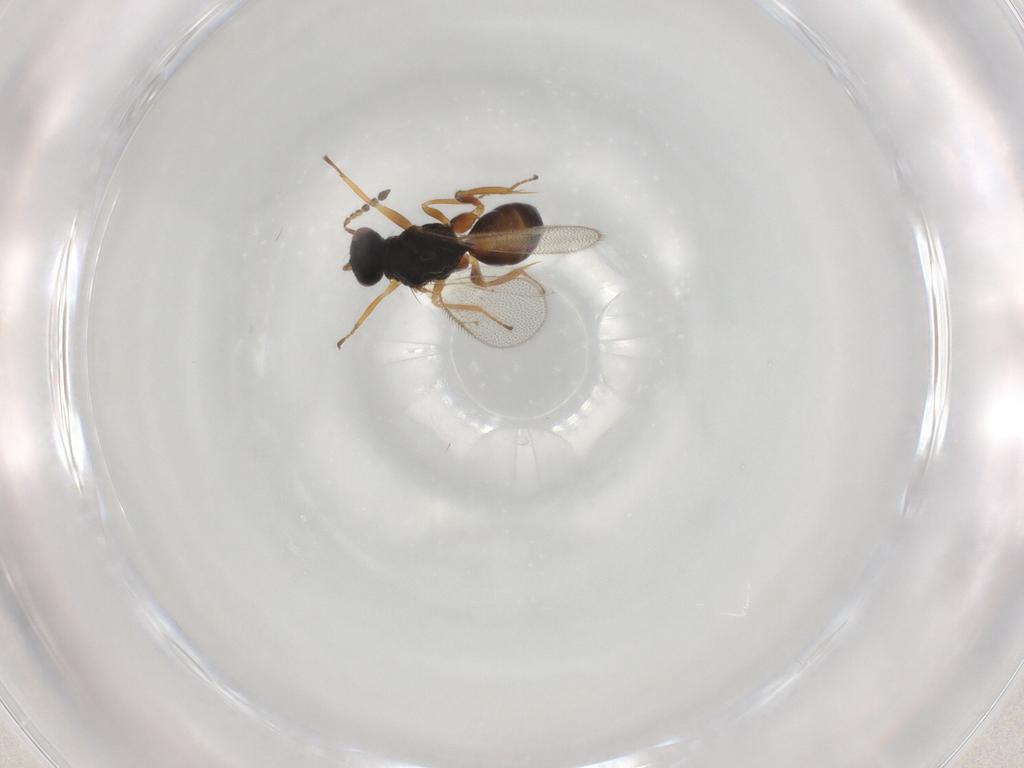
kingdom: Animalia
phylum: Arthropoda
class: Insecta
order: Hymenoptera
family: Eulophidae
